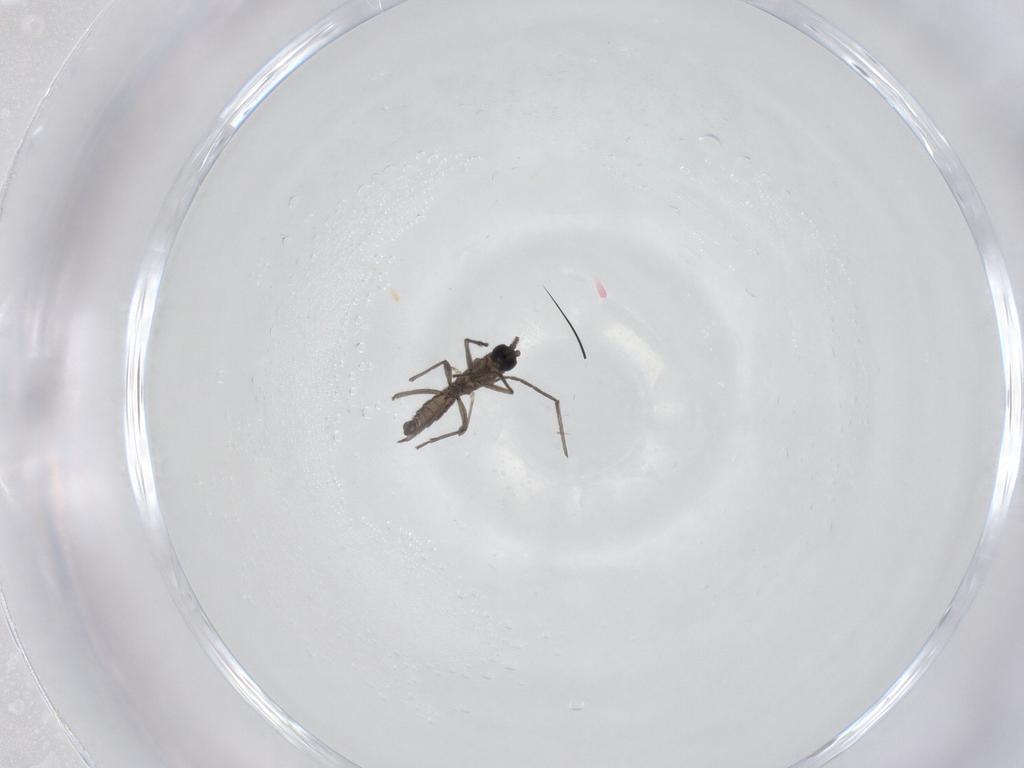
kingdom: Animalia
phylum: Arthropoda
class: Insecta
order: Diptera
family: Sciaridae
